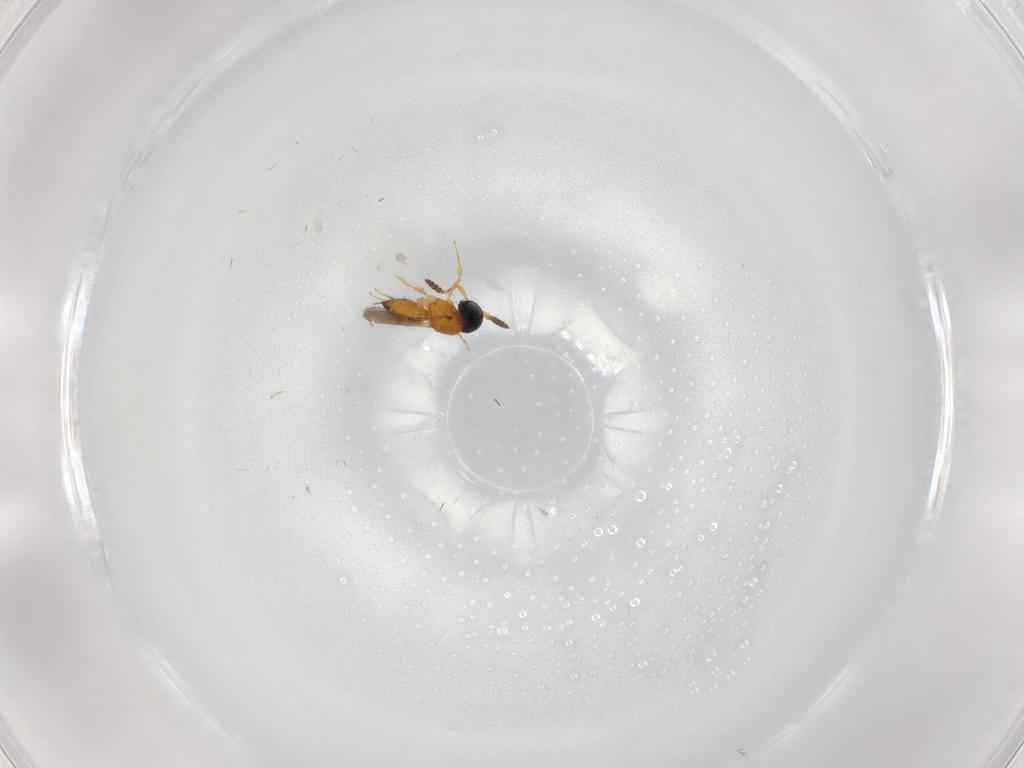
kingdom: Animalia
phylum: Arthropoda
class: Insecta
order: Hymenoptera
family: Scelionidae
